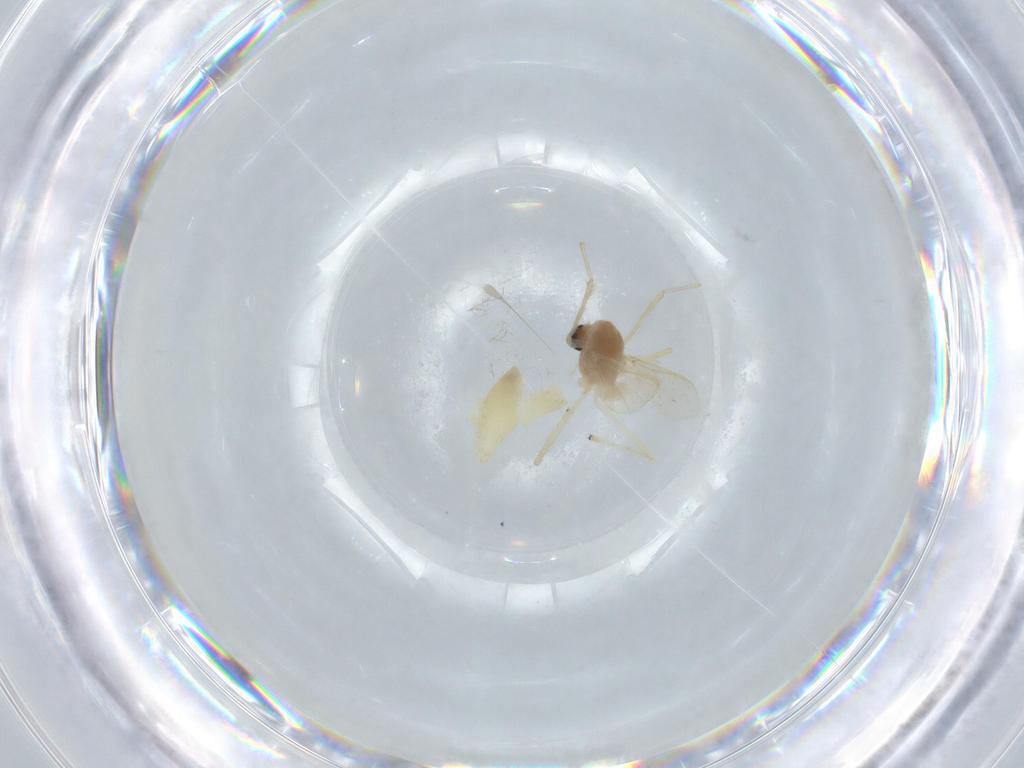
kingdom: Animalia
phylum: Arthropoda
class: Insecta
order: Diptera
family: Chironomidae
